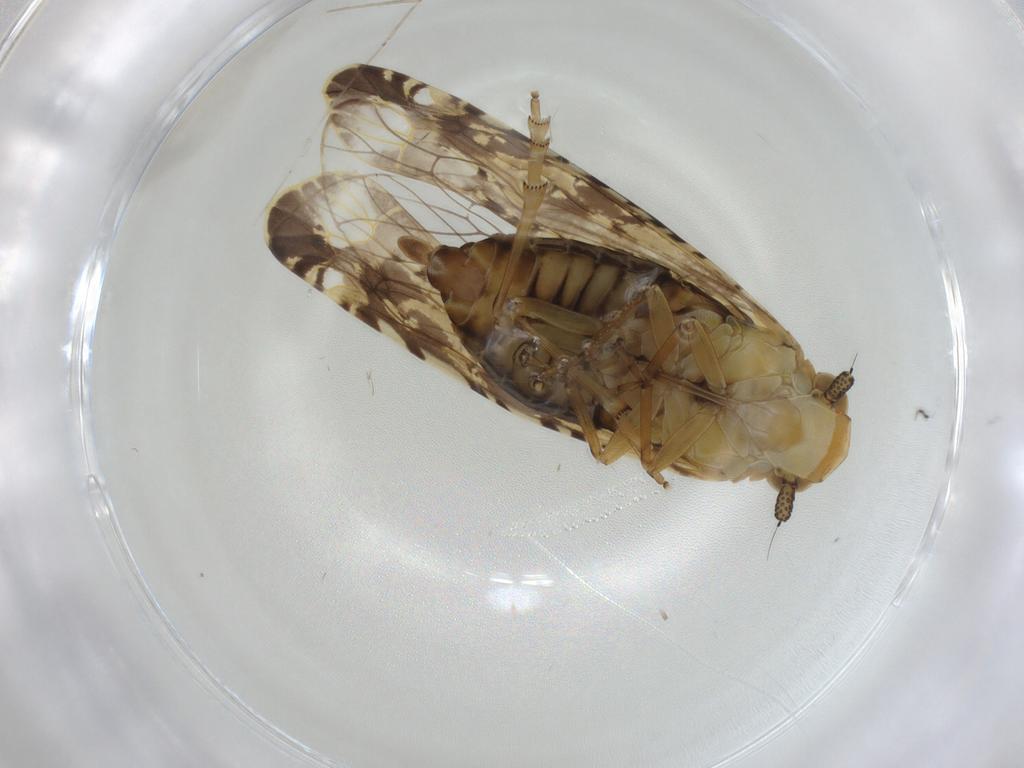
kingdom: Animalia
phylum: Arthropoda
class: Insecta
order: Hemiptera
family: Achilidae
